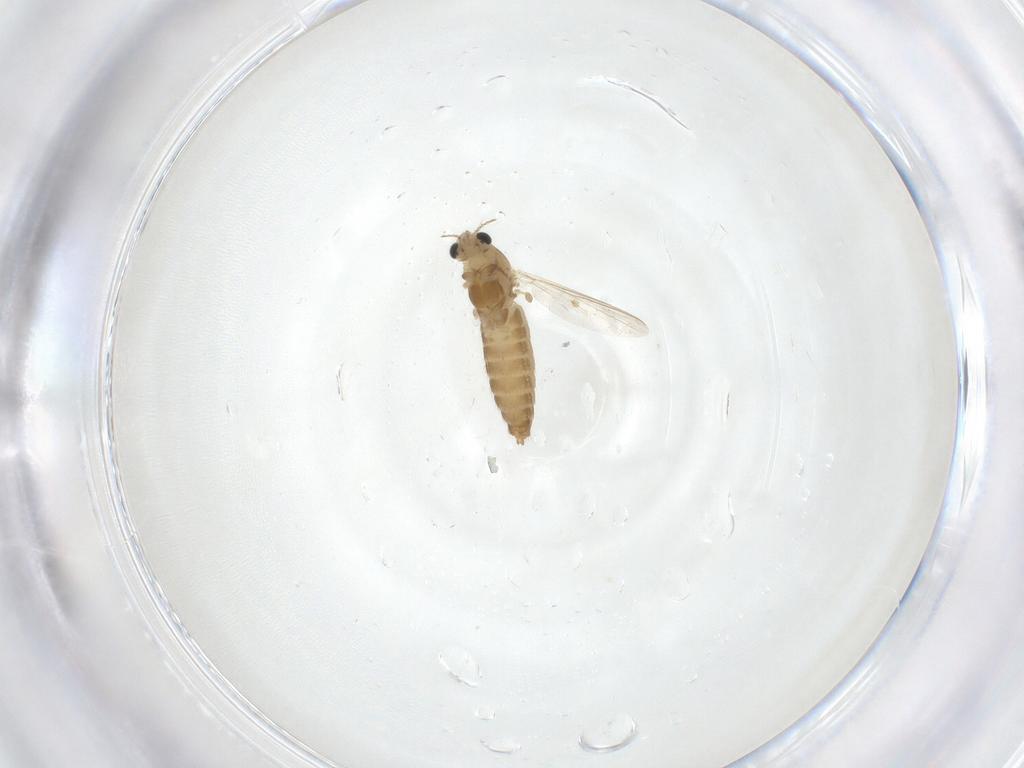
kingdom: Animalia
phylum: Arthropoda
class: Insecta
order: Diptera
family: Chironomidae
